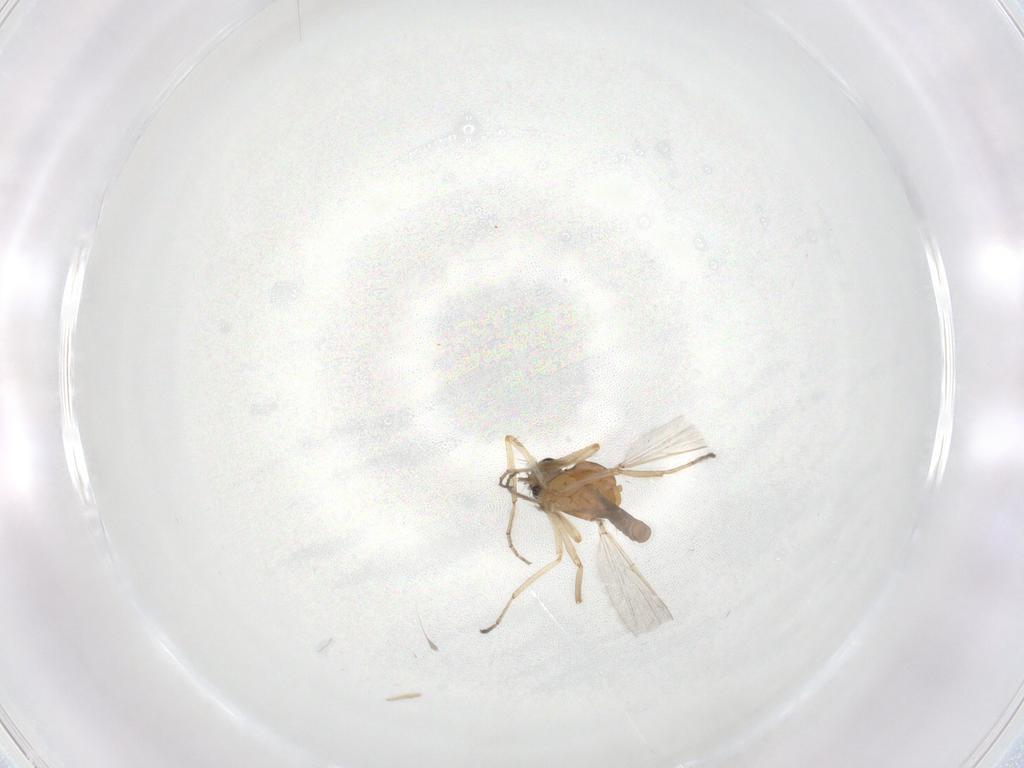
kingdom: Animalia
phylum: Arthropoda
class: Insecta
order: Diptera
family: Ceratopogonidae
